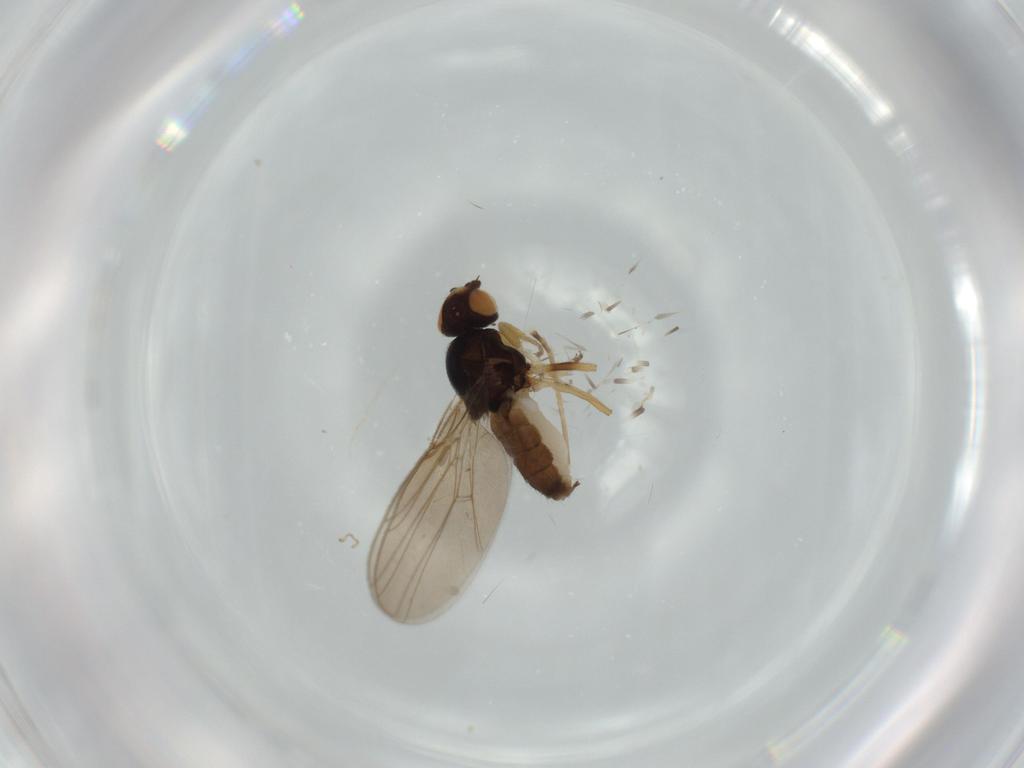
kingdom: Animalia
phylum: Arthropoda
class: Insecta
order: Diptera
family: Chloropidae
